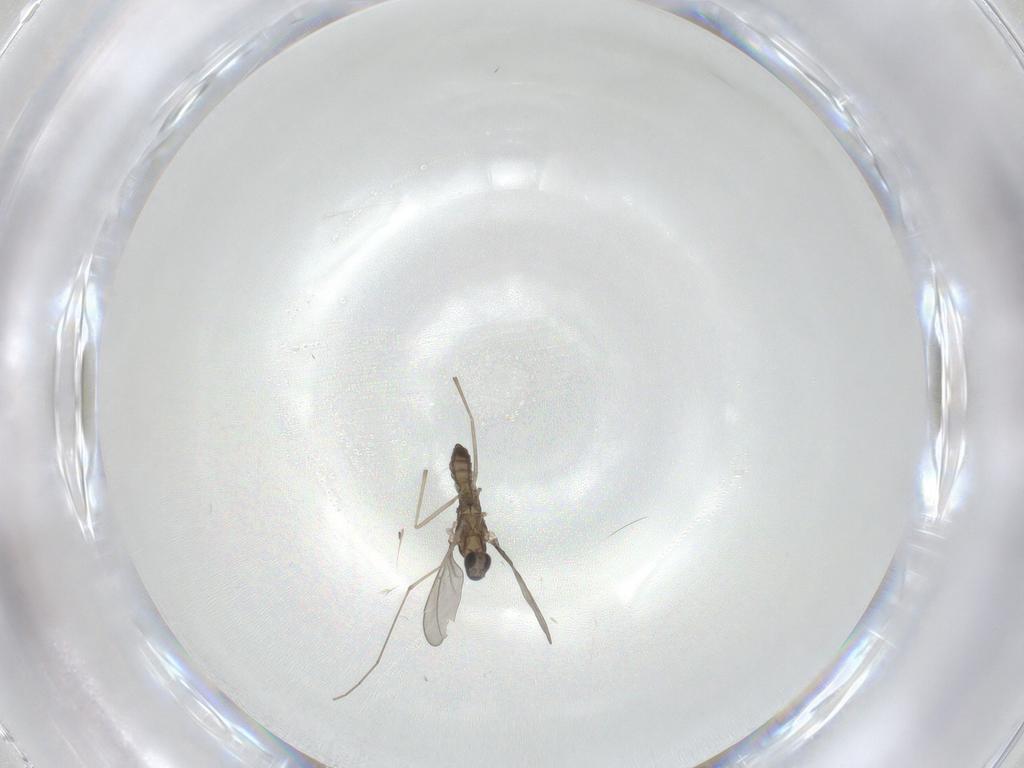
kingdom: Animalia
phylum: Arthropoda
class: Insecta
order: Diptera
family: Cecidomyiidae
